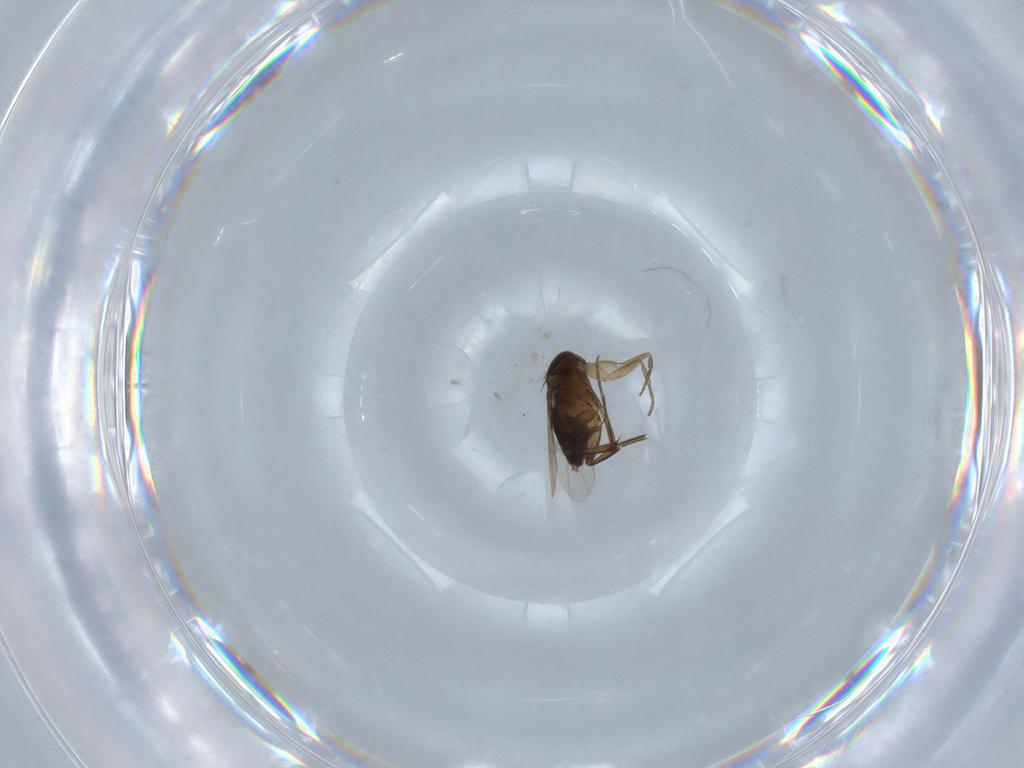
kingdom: Animalia
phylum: Arthropoda
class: Insecta
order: Diptera
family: Phoridae
